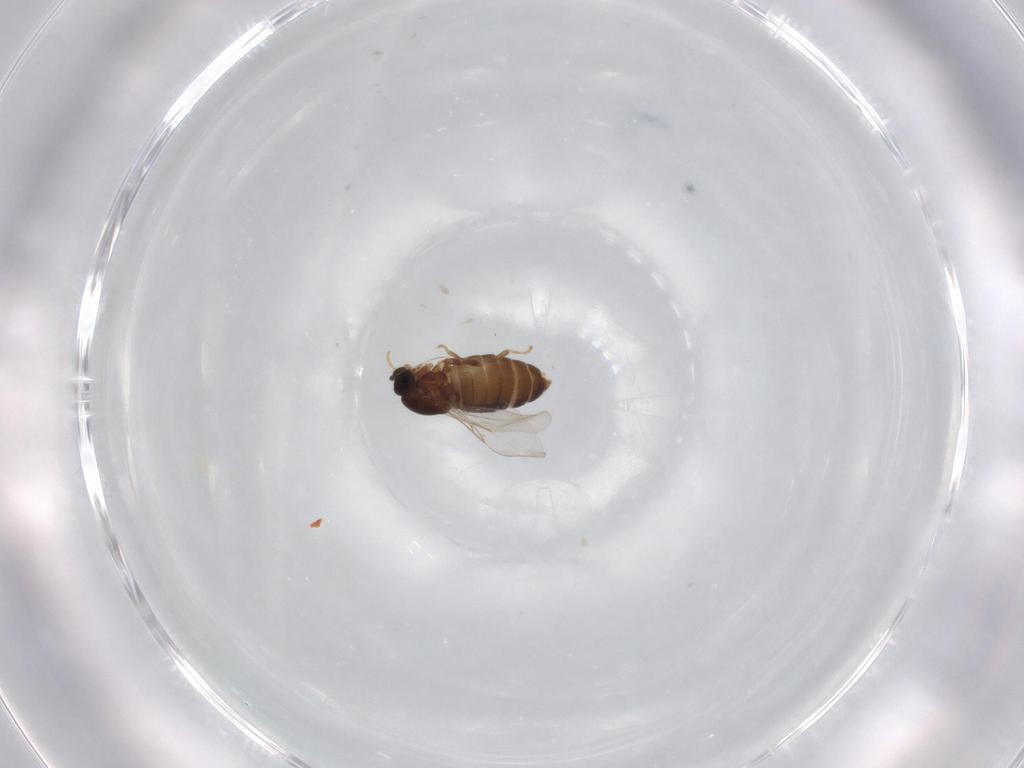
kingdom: Animalia
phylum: Arthropoda
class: Insecta
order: Diptera
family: Scatopsidae
